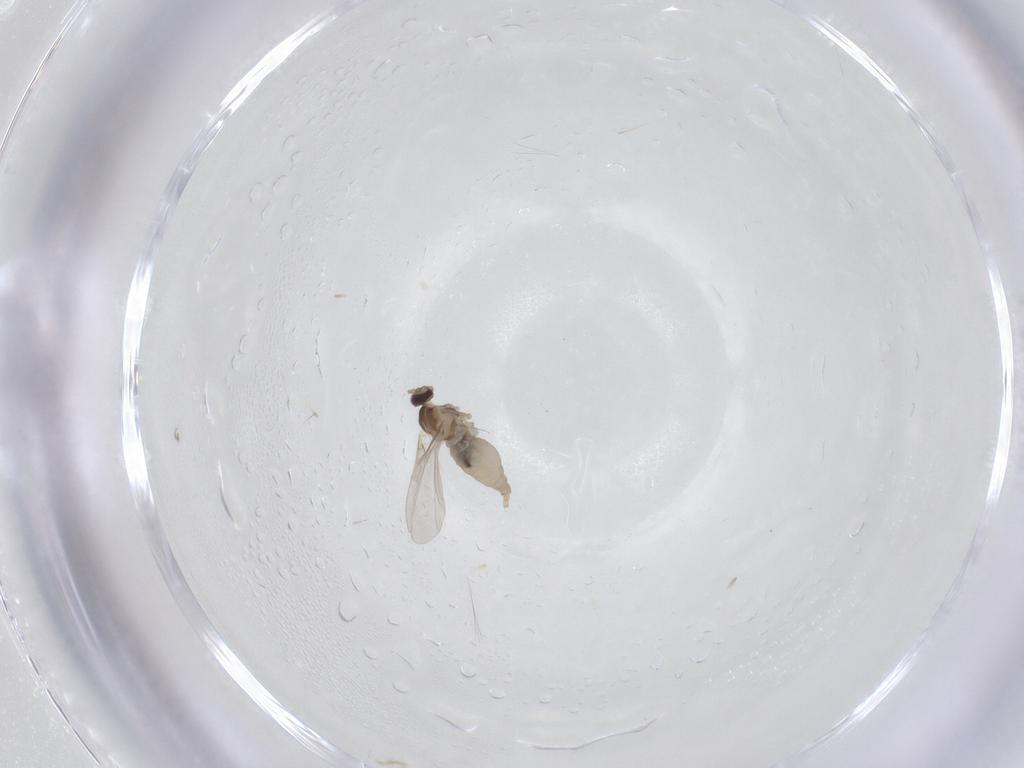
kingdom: Animalia
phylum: Arthropoda
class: Insecta
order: Diptera
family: Cecidomyiidae
